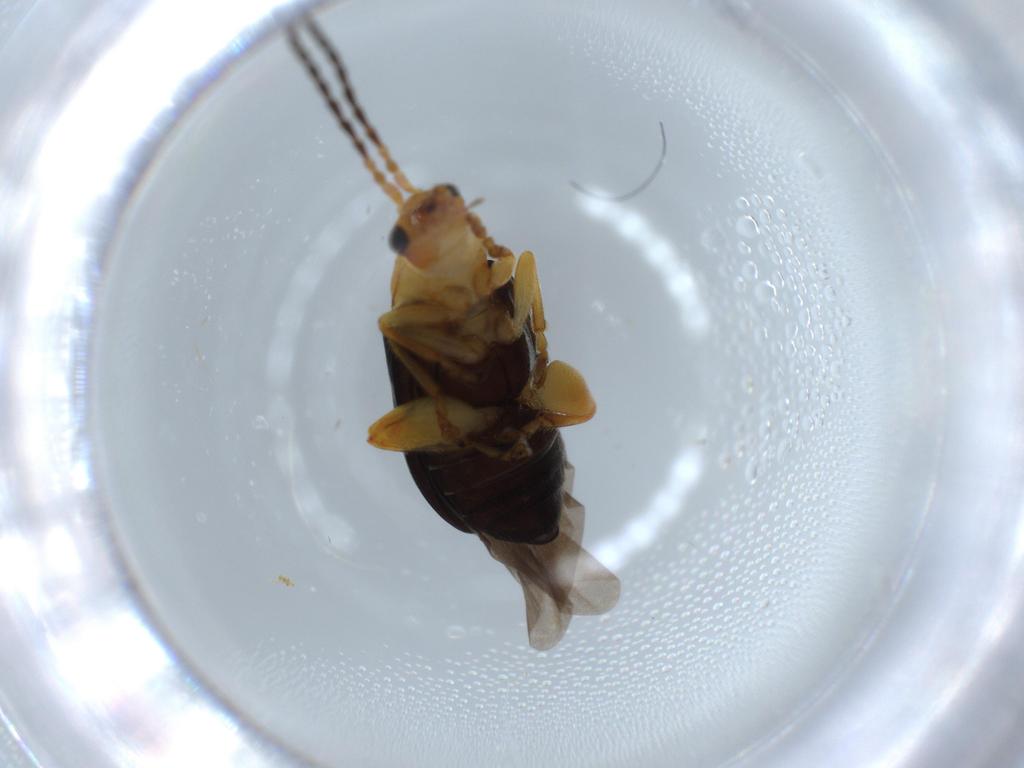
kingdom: Animalia
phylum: Arthropoda
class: Insecta
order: Coleoptera
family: Chrysomelidae
